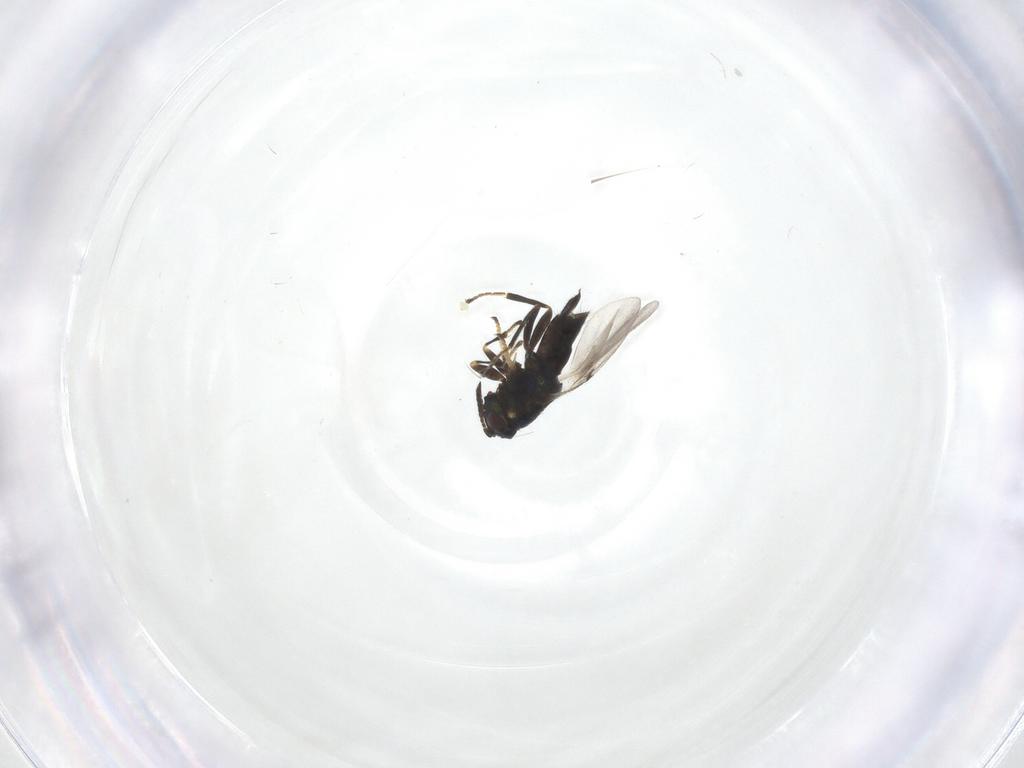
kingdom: Animalia
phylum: Arthropoda
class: Insecta
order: Hymenoptera
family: Encyrtidae
